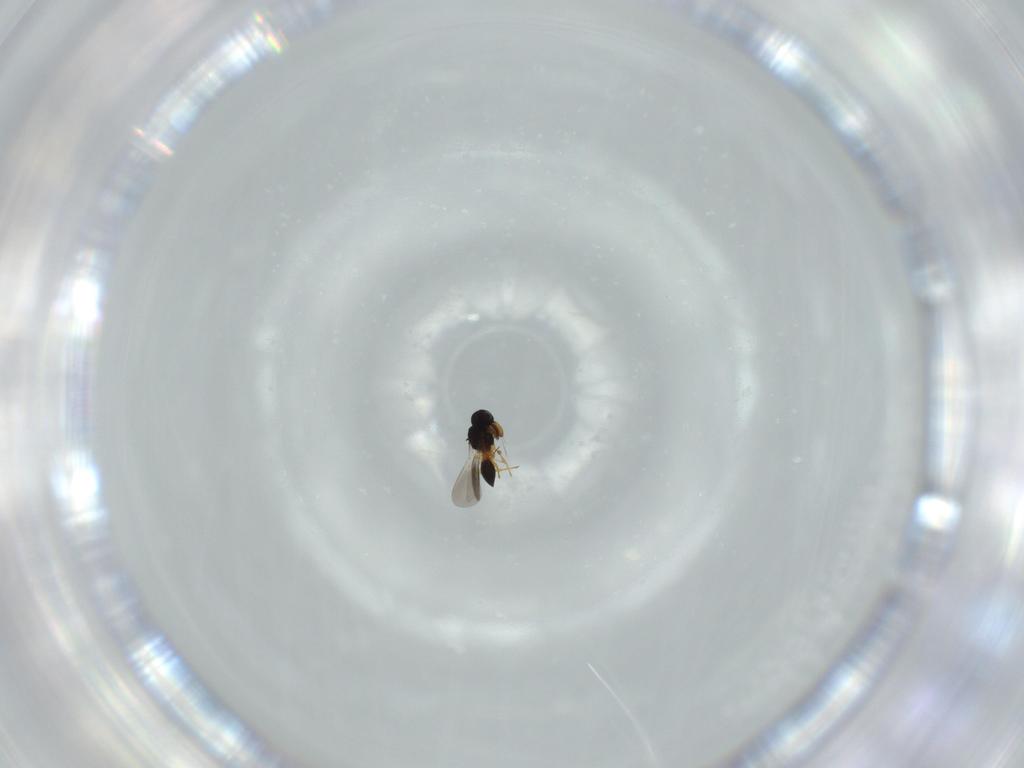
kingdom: Animalia
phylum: Arthropoda
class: Insecta
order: Hymenoptera
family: Platygastridae
